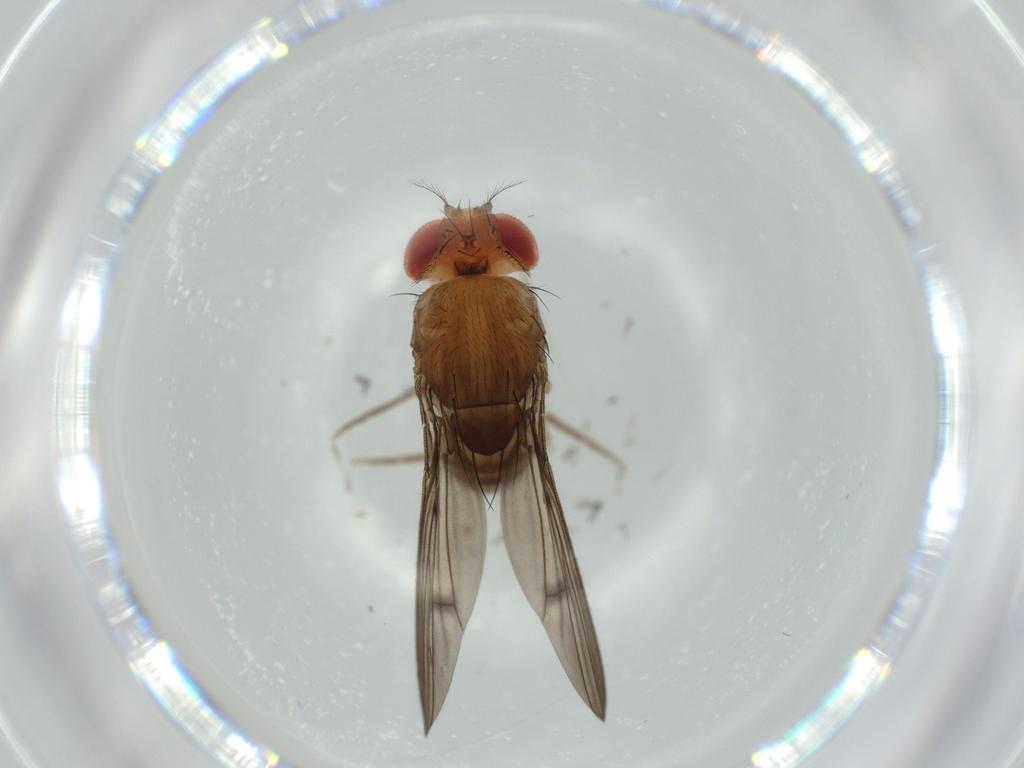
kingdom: Animalia
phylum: Arthropoda
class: Insecta
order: Diptera
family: Drosophilidae
